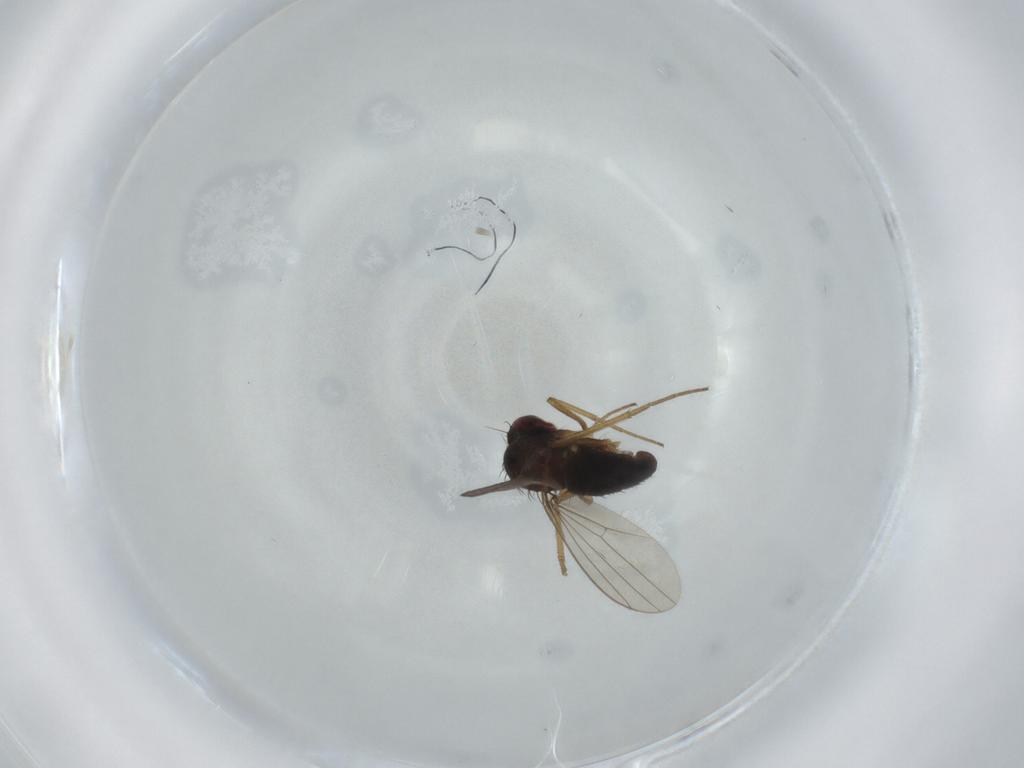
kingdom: Animalia
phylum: Arthropoda
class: Insecta
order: Diptera
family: Dolichopodidae
